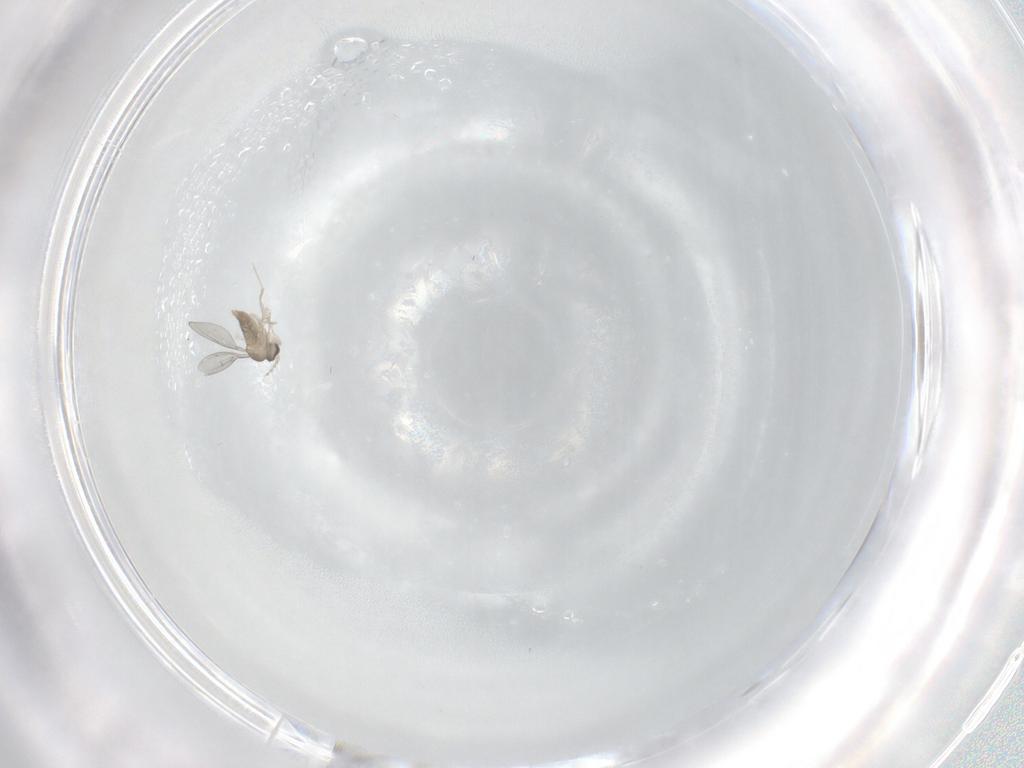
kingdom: Animalia
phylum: Arthropoda
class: Insecta
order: Diptera
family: Cecidomyiidae
